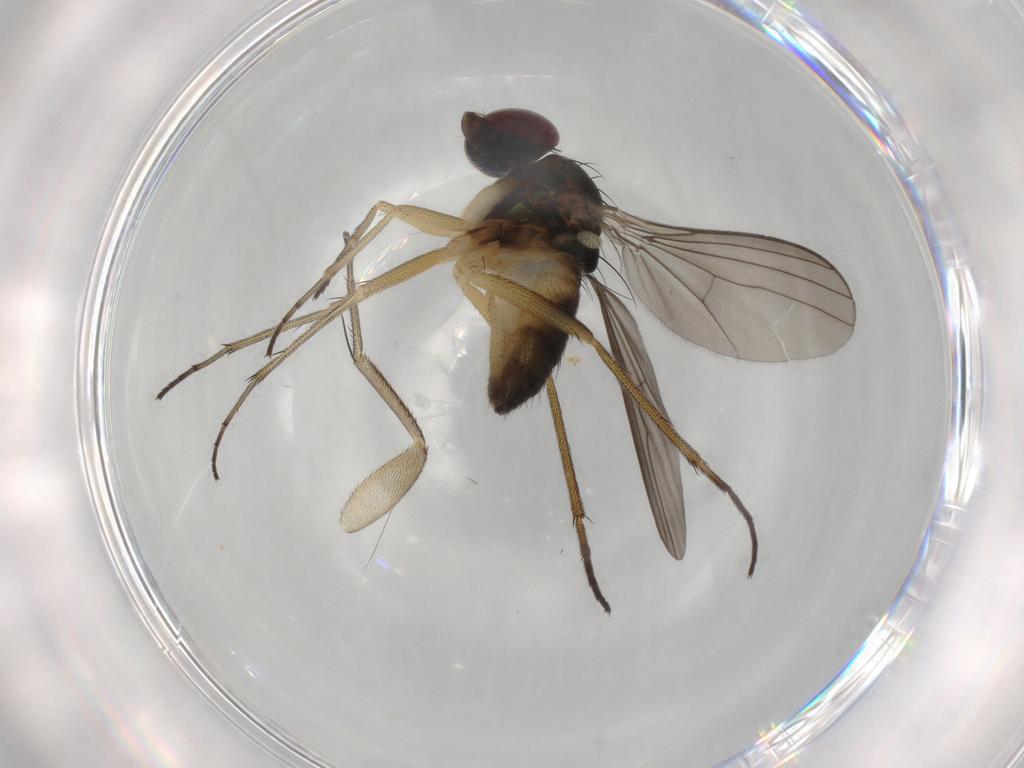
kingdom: Animalia
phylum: Arthropoda
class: Insecta
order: Diptera
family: Dolichopodidae
